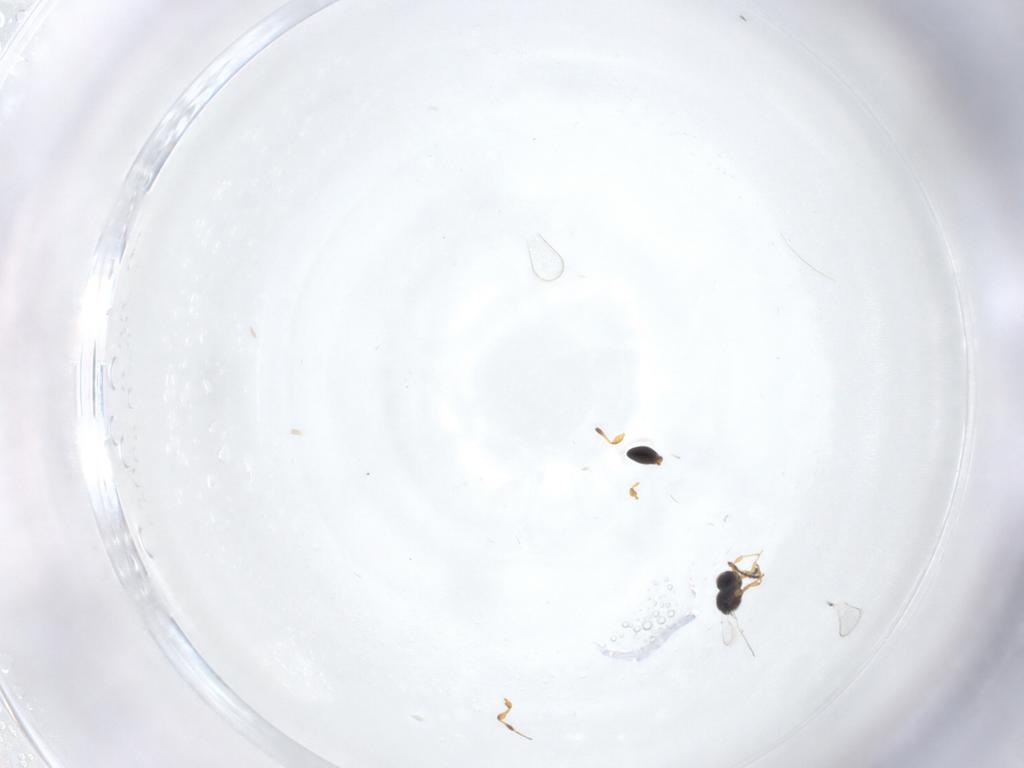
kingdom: Animalia
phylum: Arthropoda
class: Insecta
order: Hymenoptera
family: Platygastridae
